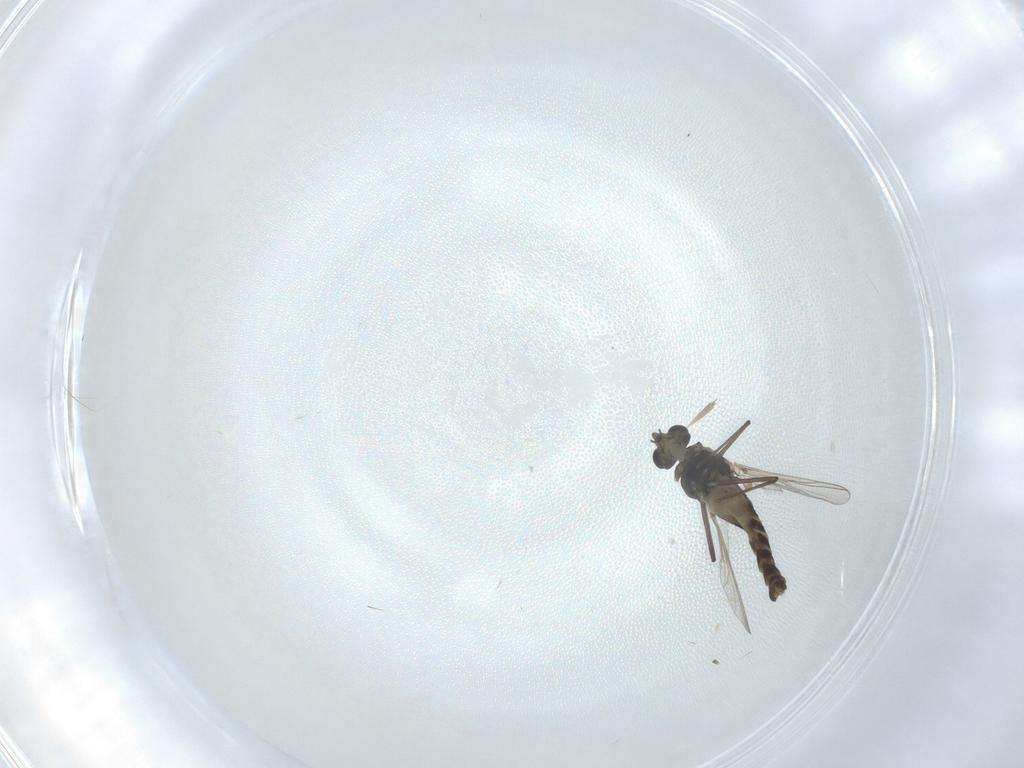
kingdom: Animalia
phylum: Arthropoda
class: Insecta
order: Diptera
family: Chironomidae
